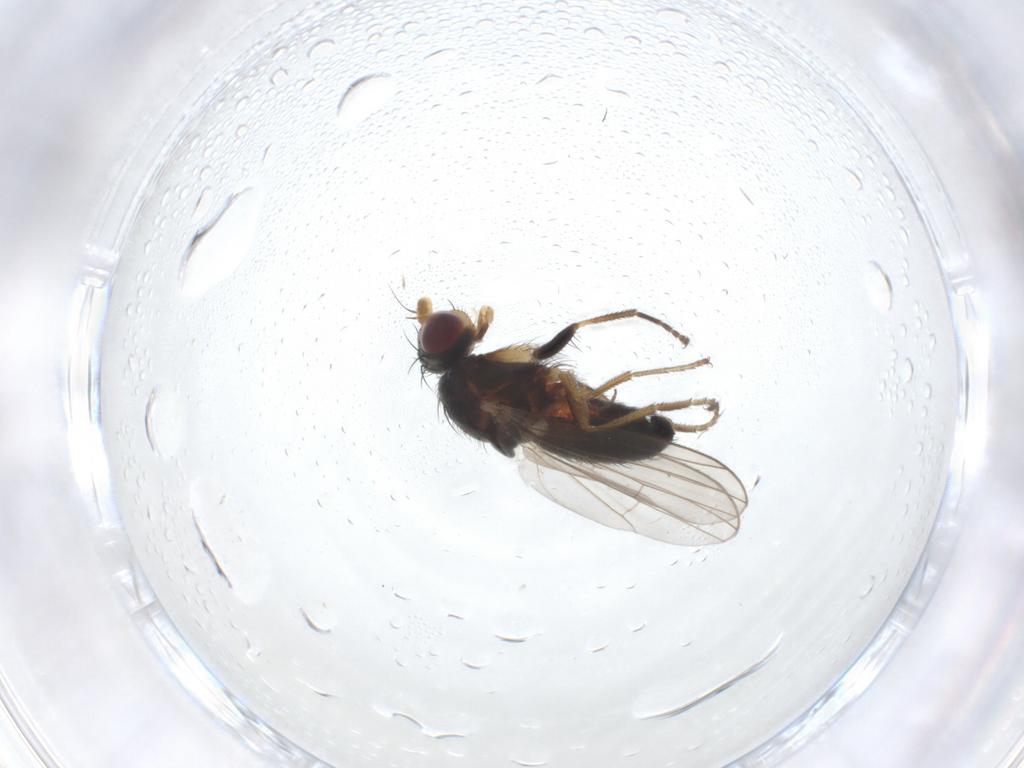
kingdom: Animalia
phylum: Arthropoda
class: Insecta
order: Diptera
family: Heleomyzidae
